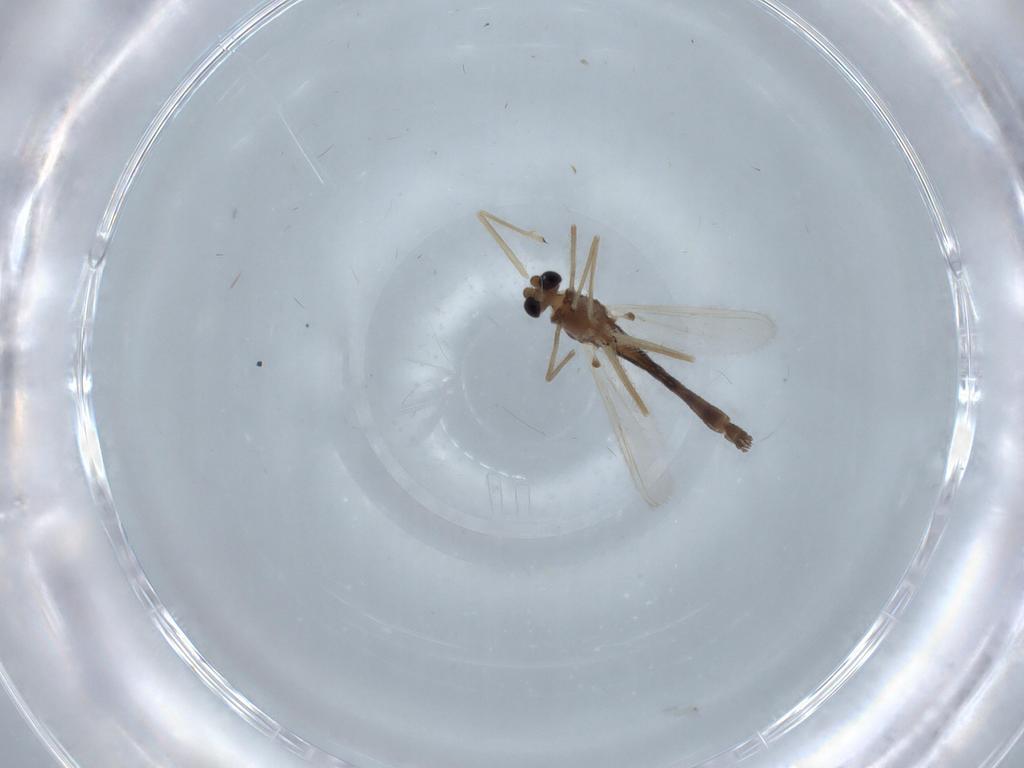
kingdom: Animalia
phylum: Arthropoda
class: Insecta
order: Diptera
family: Chironomidae
